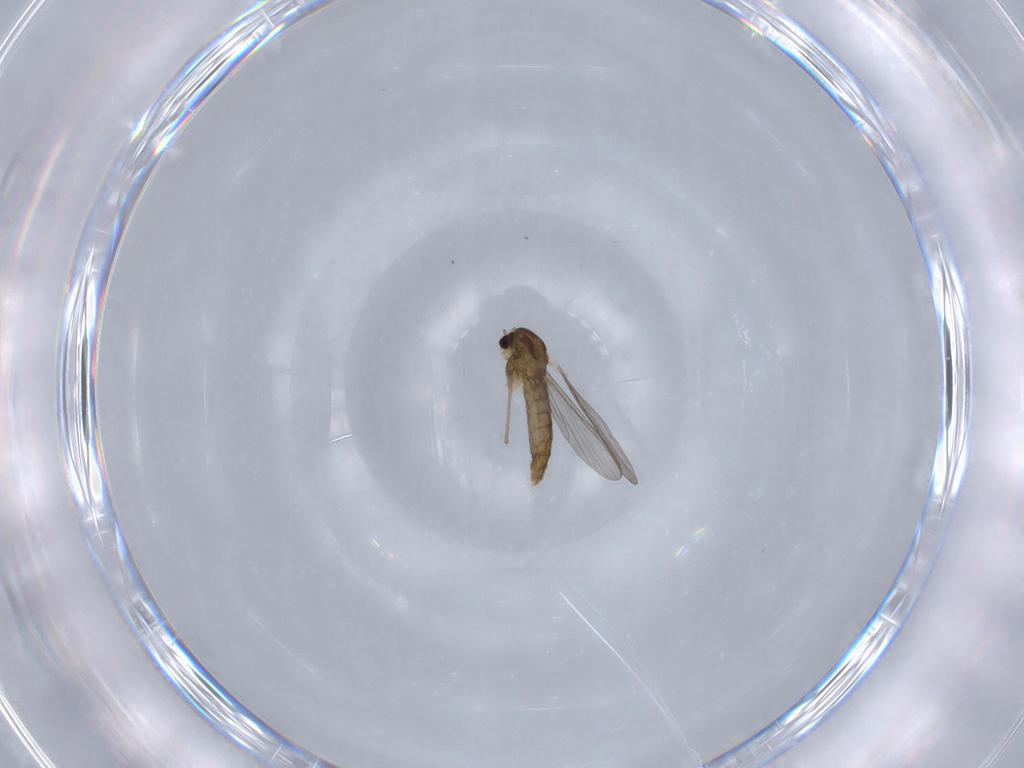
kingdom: Animalia
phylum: Arthropoda
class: Insecta
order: Diptera
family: Chironomidae
